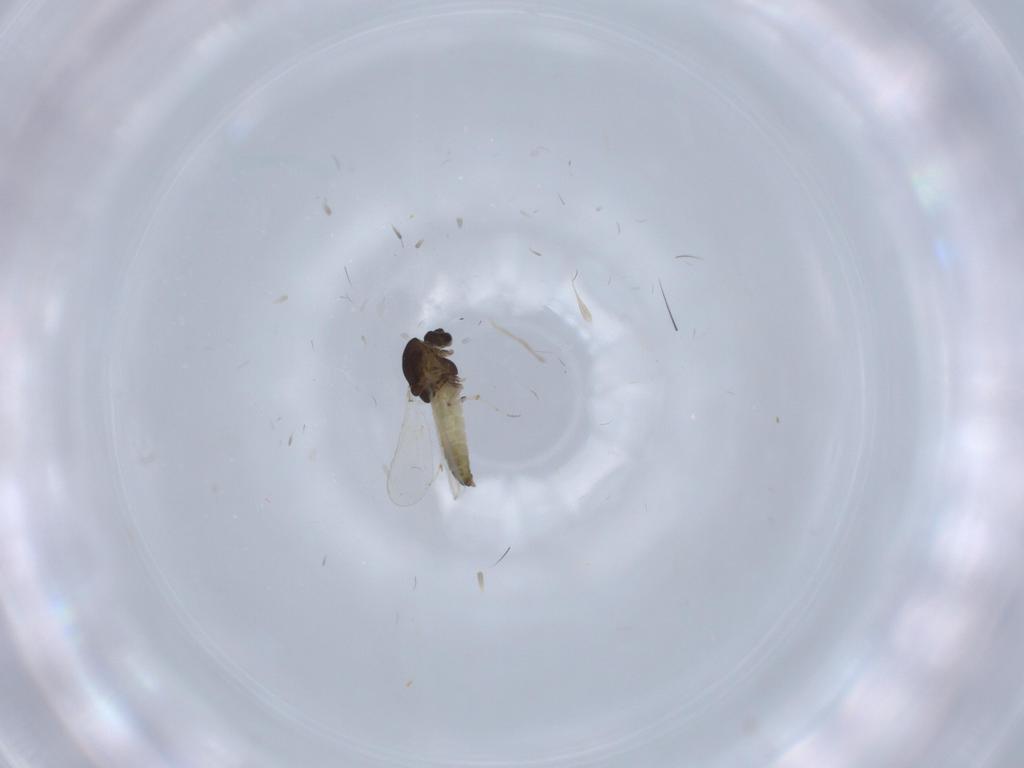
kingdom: Animalia
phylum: Arthropoda
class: Insecta
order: Diptera
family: Psychodidae
